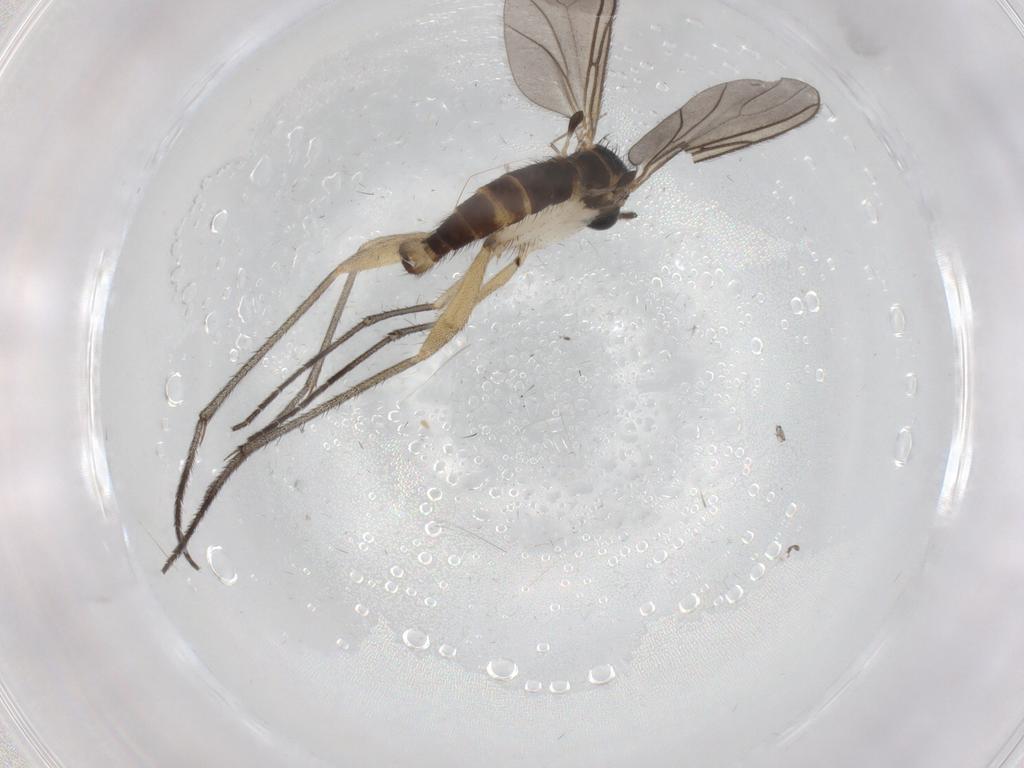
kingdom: Animalia
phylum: Arthropoda
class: Insecta
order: Diptera
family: Sciaridae
